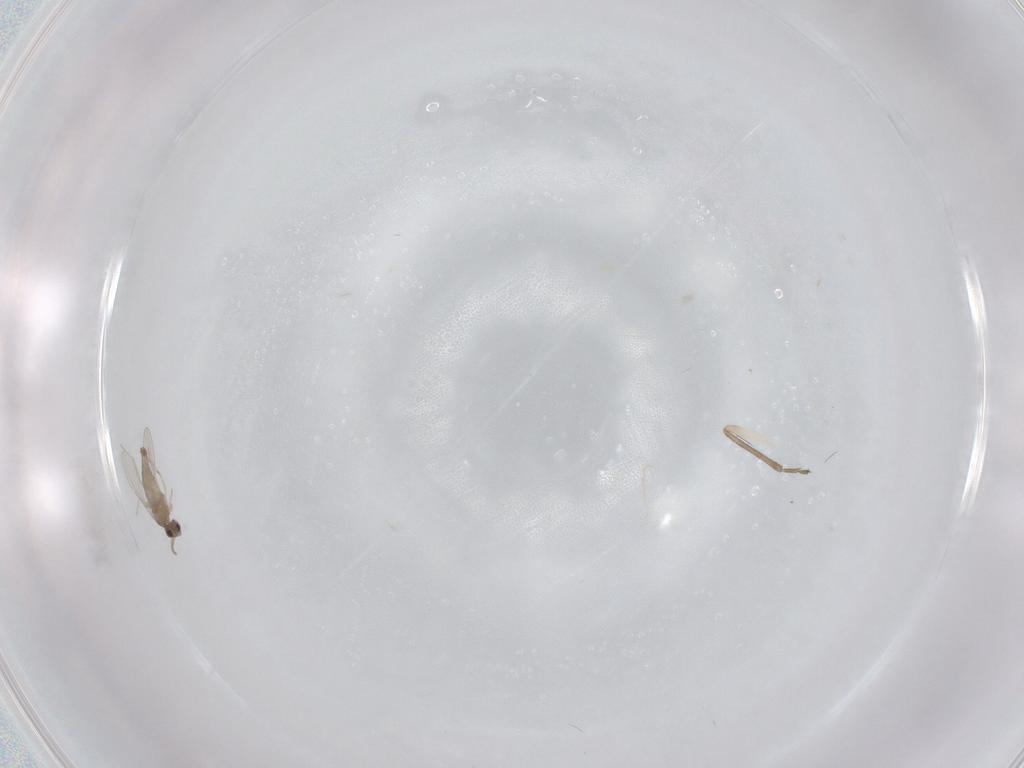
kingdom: Animalia
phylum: Arthropoda
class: Insecta
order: Diptera
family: Cecidomyiidae
